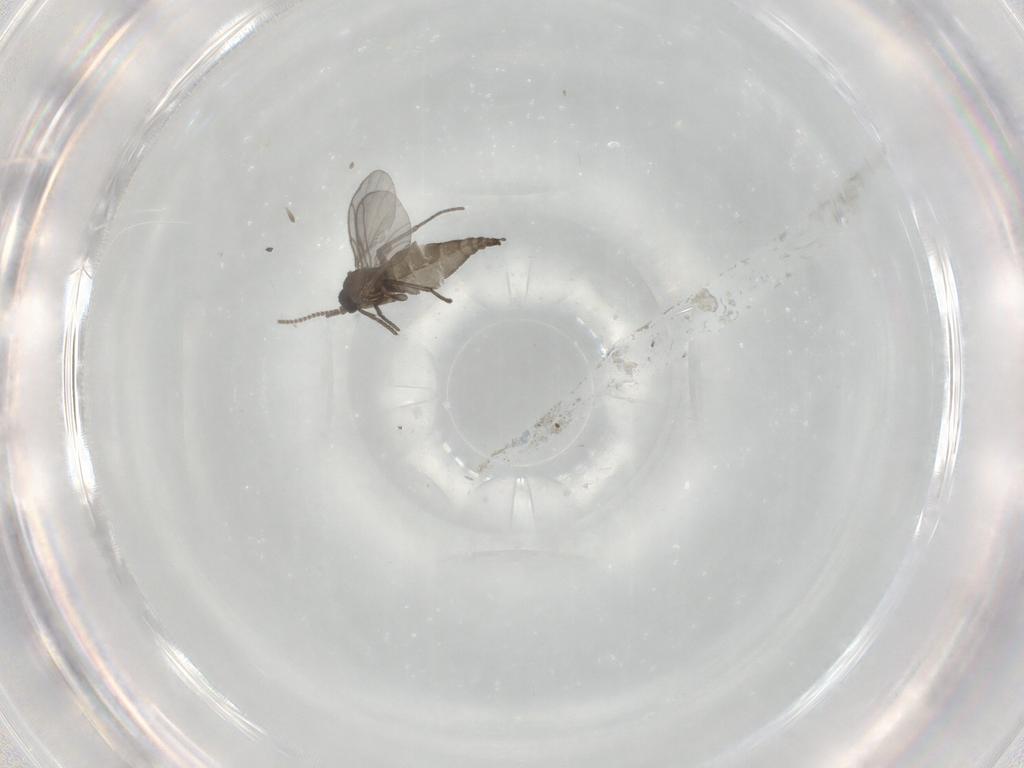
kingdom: Animalia
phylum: Arthropoda
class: Insecta
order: Diptera
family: Sciaridae
